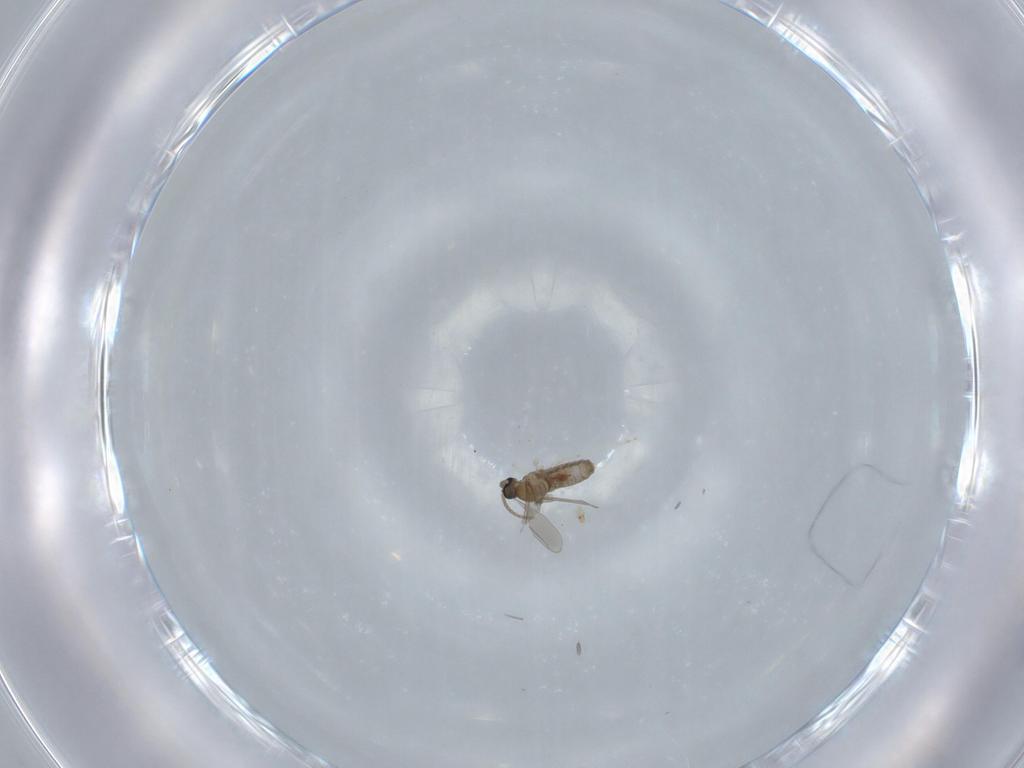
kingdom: Animalia
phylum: Arthropoda
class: Insecta
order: Diptera
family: Cecidomyiidae
